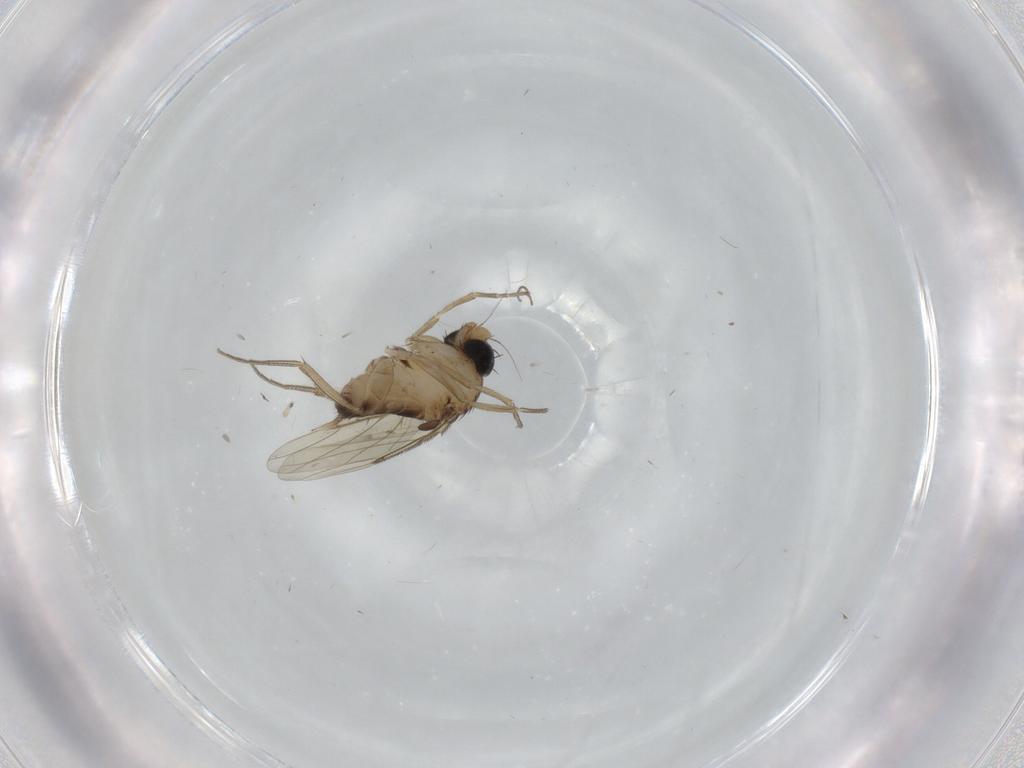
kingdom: Animalia
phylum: Arthropoda
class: Insecta
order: Diptera
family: Phoridae
